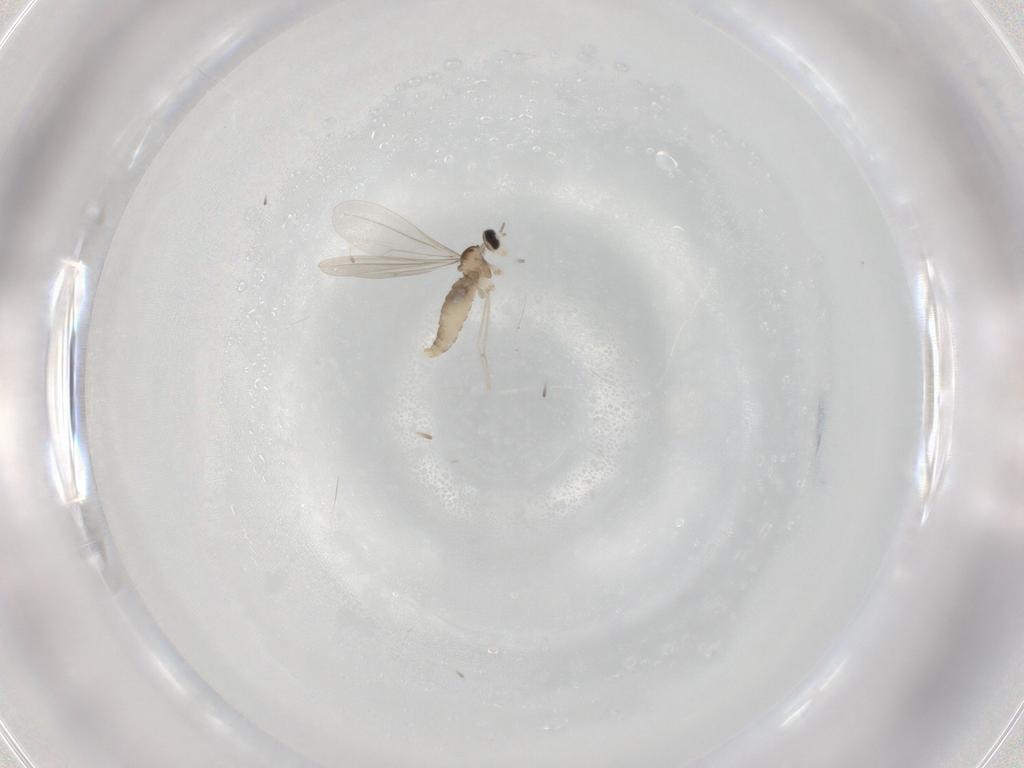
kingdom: Animalia
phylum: Arthropoda
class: Insecta
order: Diptera
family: Cecidomyiidae
